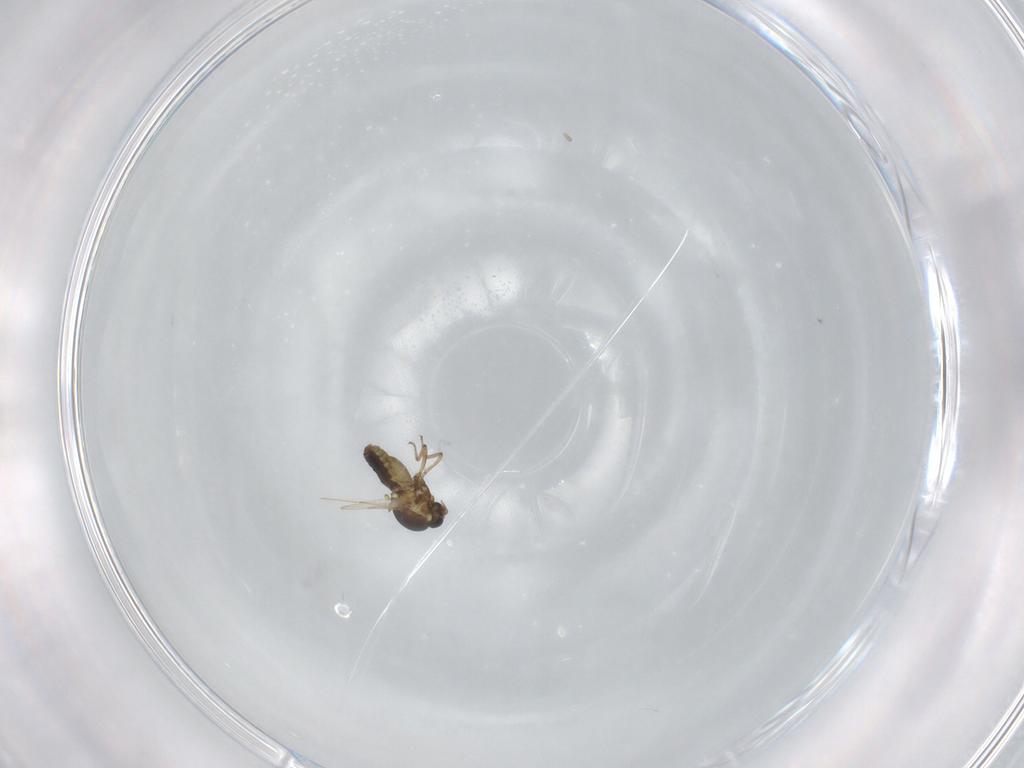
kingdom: Animalia
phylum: Arthropoda
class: Insecta
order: Diptera
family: Ceratopogonidae
